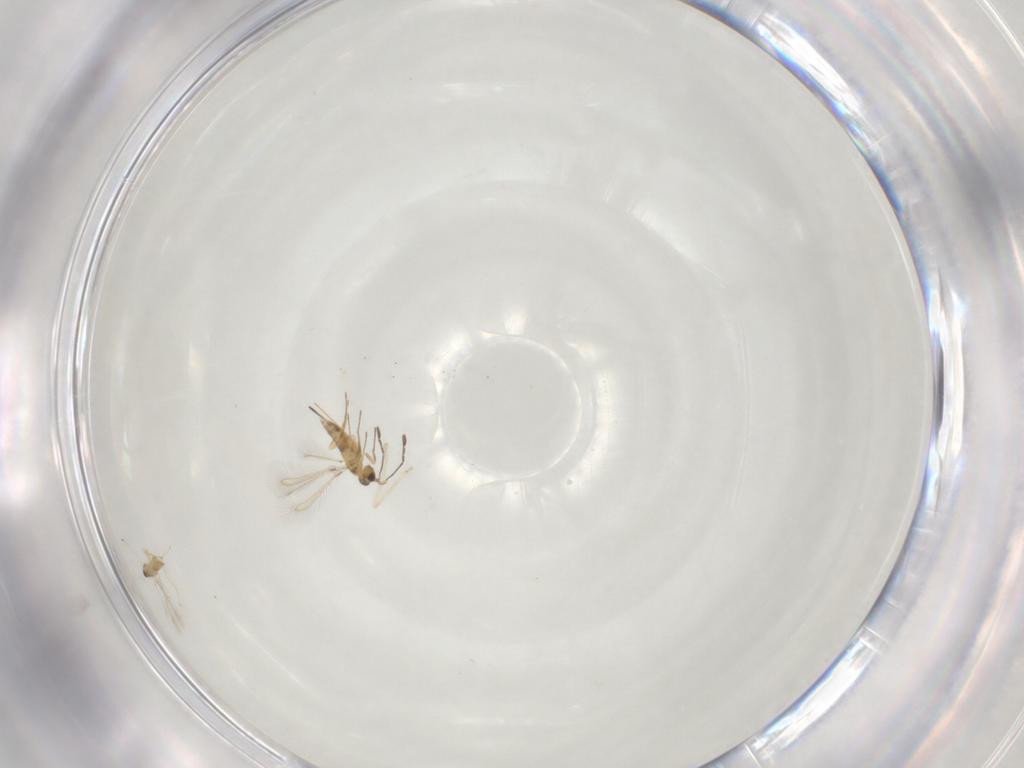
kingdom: Animalia
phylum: Arthropoda
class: Insecta
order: Hymenoptera
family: Mymaridae
